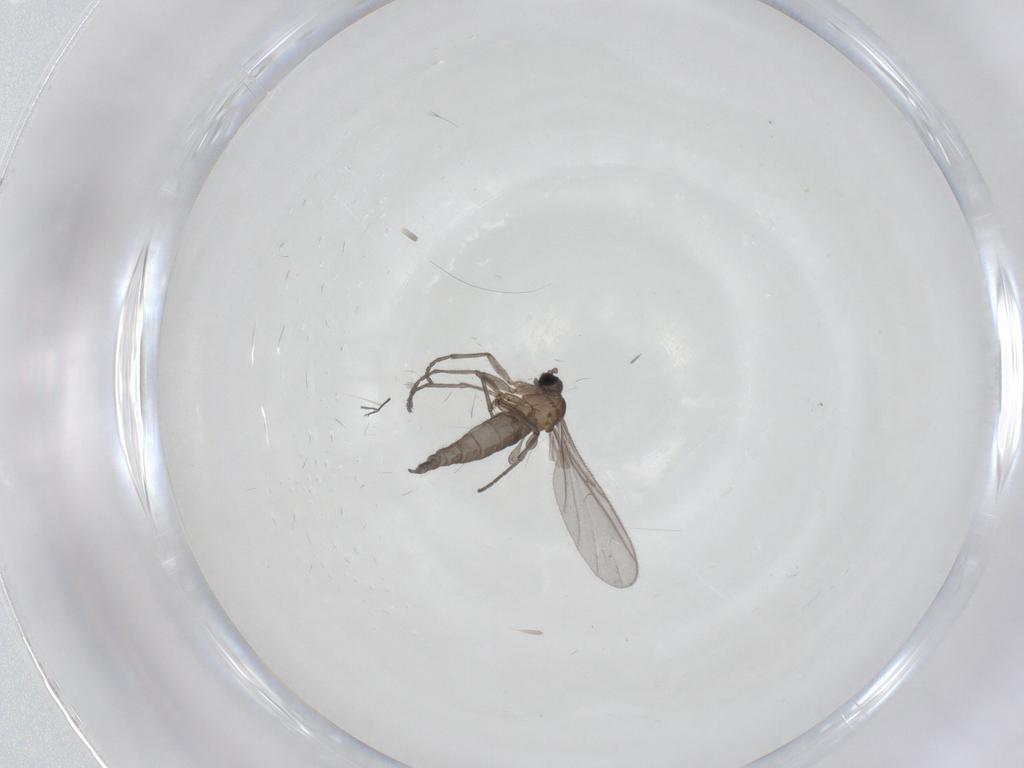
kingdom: Animalia
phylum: Arthropoda
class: Insecta
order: Diptera
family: Sciaridae
